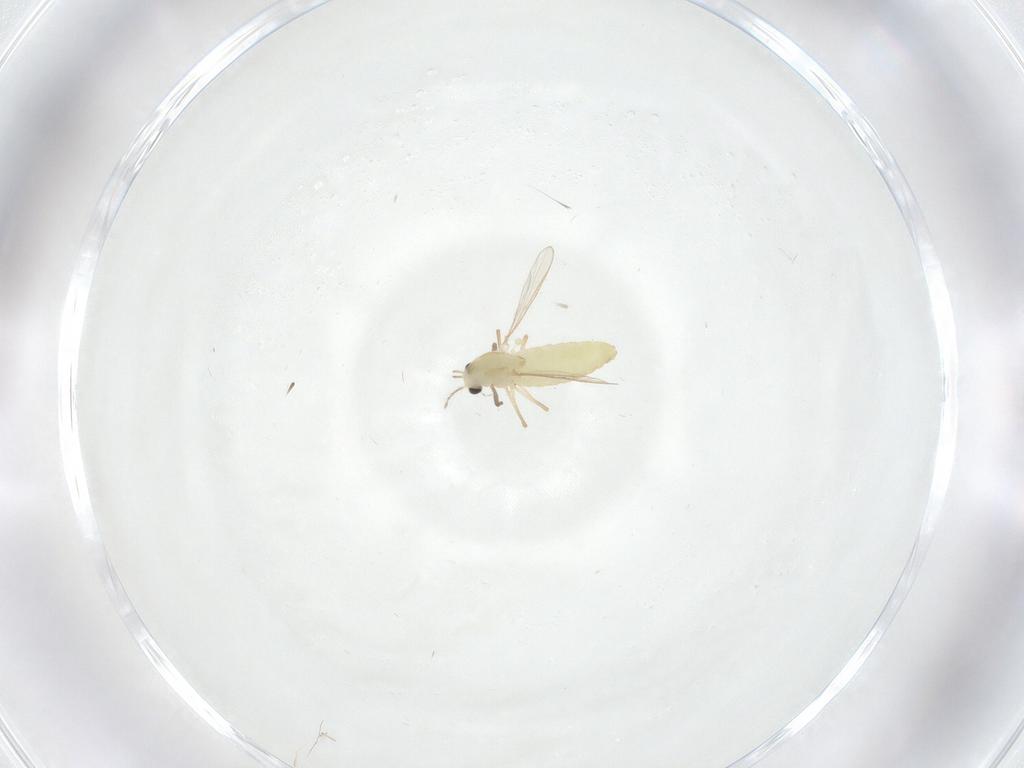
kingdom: Animalia
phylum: Arthropoda
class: Insecta
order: Diptera
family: Chironomidae
